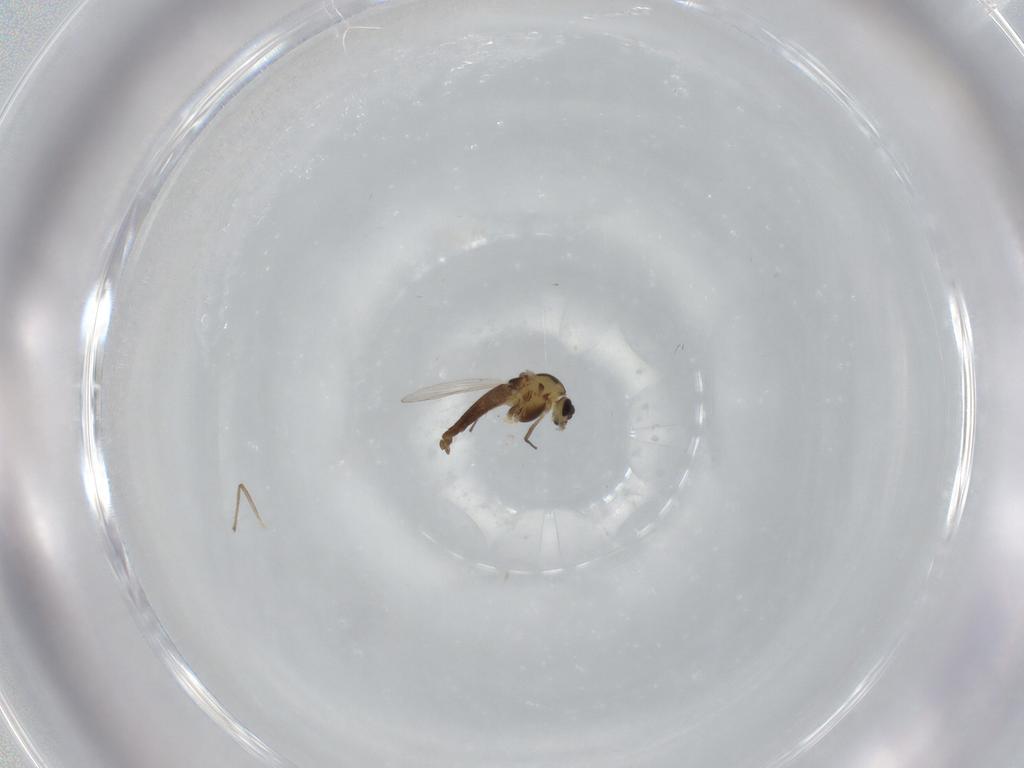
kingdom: Animalia
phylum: Arthropoda
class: Insecta
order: Diptera
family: Chironomidae
